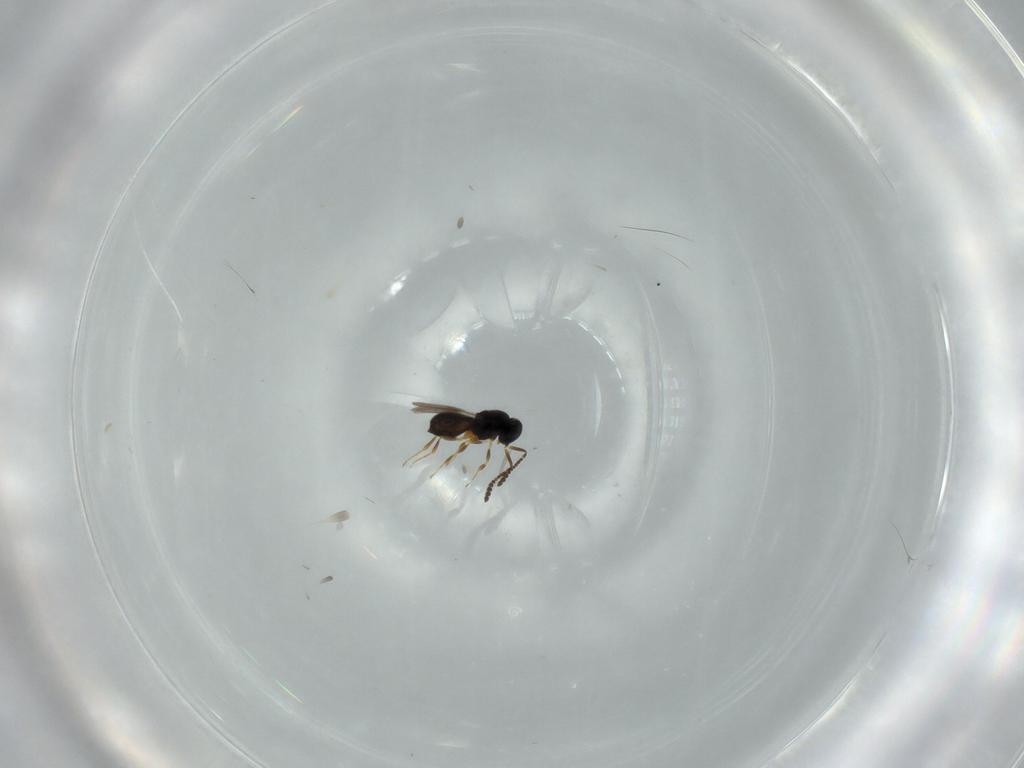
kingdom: Animalia
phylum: Arthropoda
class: Insecta
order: Hymenoptera
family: Scelionidae
